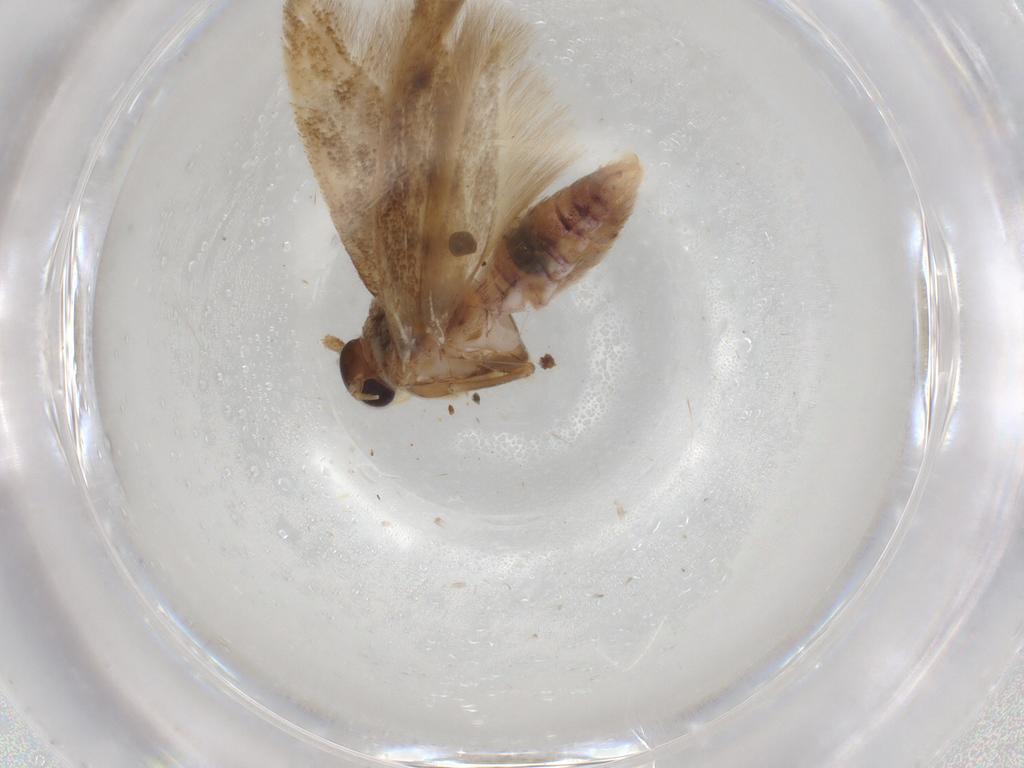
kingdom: Animalia
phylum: Arthropoda
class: Insecta
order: Lepidoptera
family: Scythrididae
